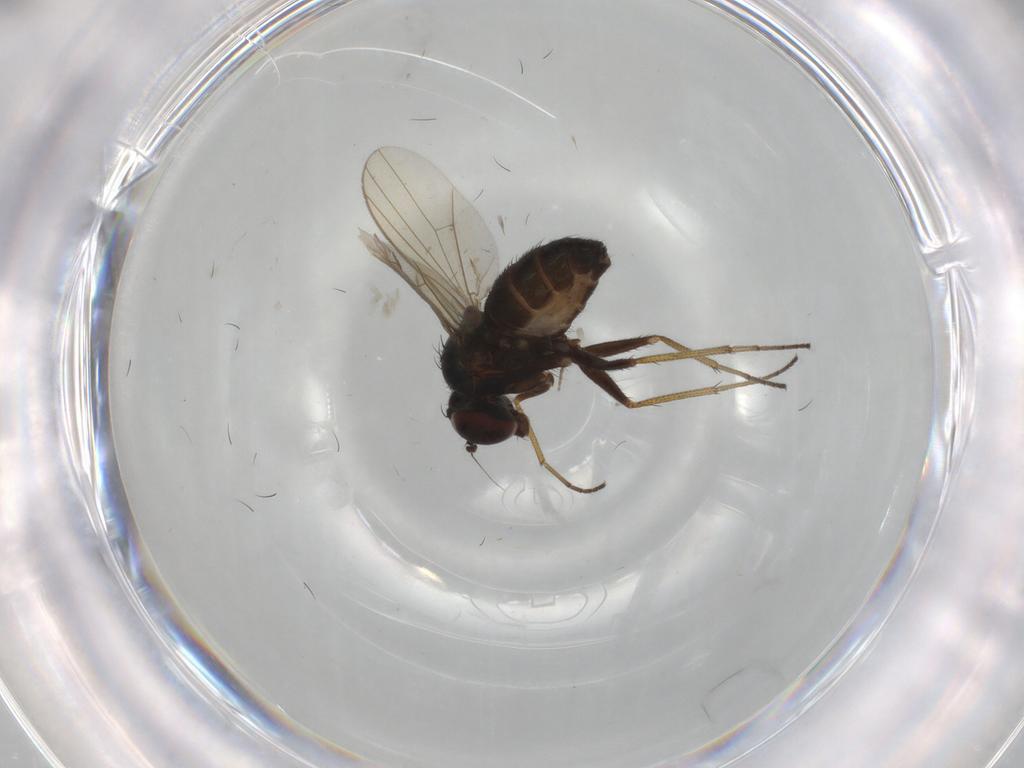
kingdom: Animalia
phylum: Arthropoda
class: Insecta
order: Diptera
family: Dolichopodidae
